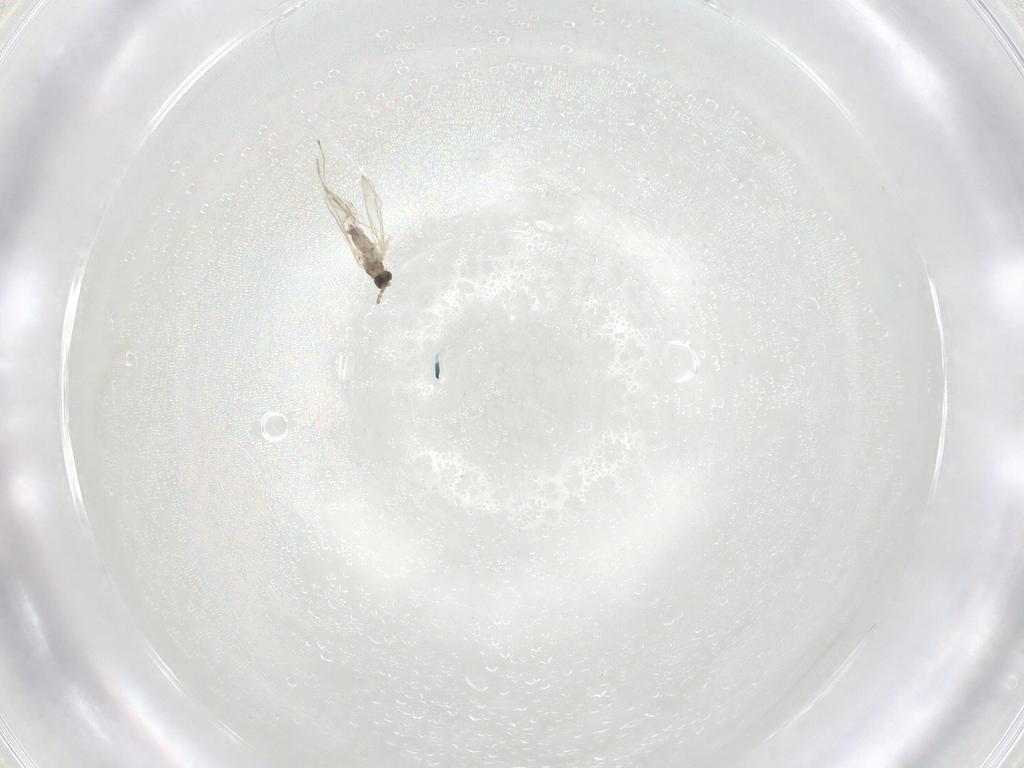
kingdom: Animalia
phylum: Arthropoda
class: Insecta
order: Diptera
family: Cecidomyiidae
